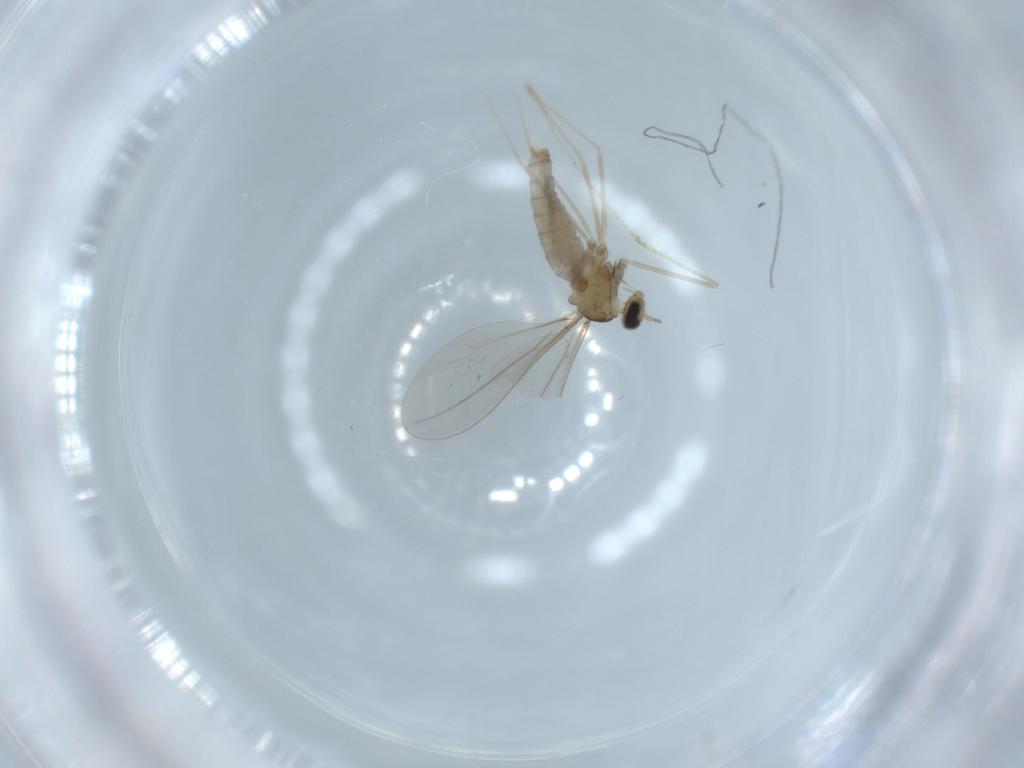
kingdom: Animalia
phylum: Arthropoda
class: Insecta
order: Diptera
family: Cecidomyiidae
